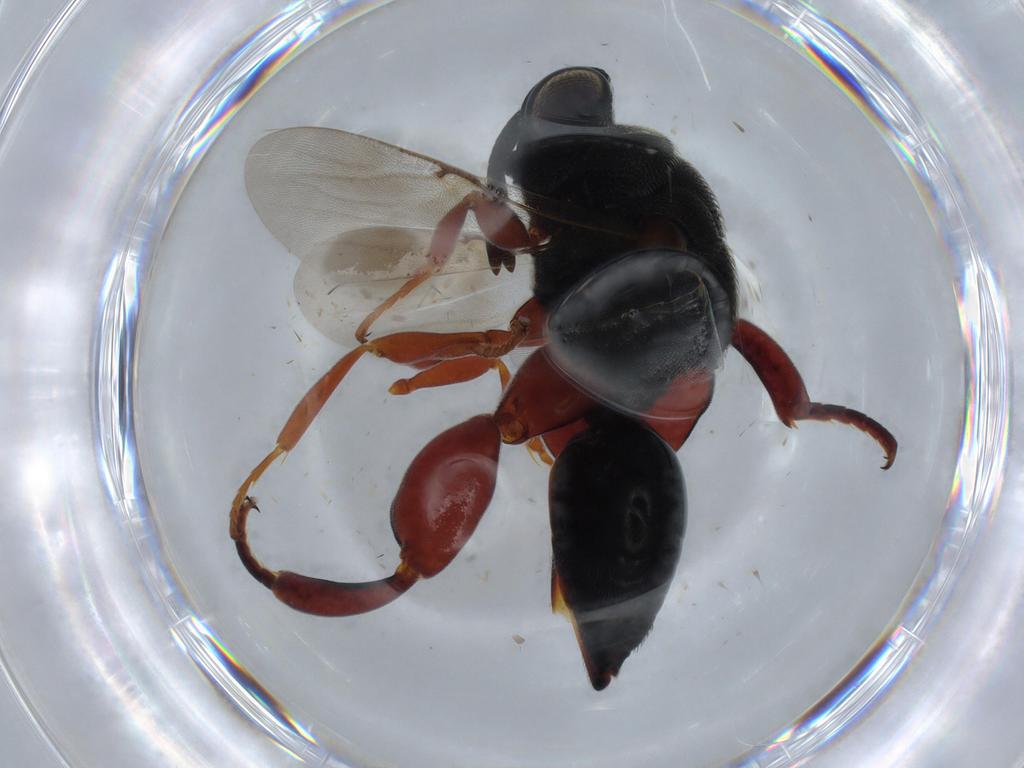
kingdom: Animalia
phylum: Arthropoda
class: Insecta
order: Hymenoptera
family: Chalcididae
